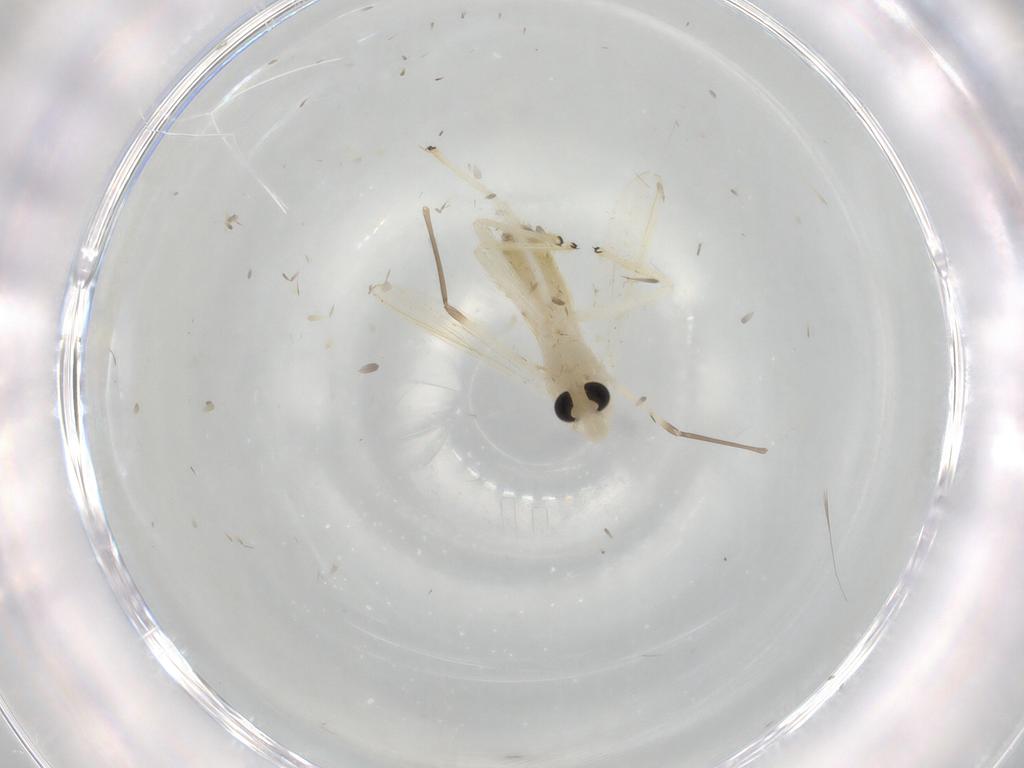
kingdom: Animalia
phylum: Arthropoda
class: Insecta
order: Diptera
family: Chironomidae
